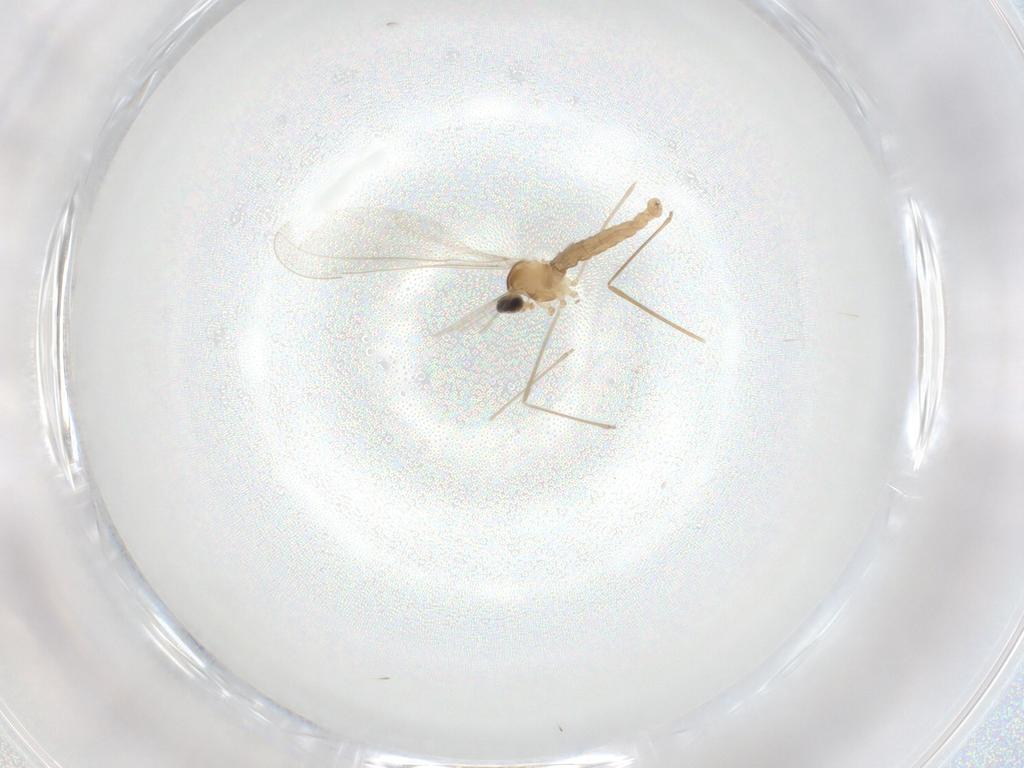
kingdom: Animalia
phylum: Arthropoda
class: Insecta
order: Diptera
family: Cecidomyiidae
